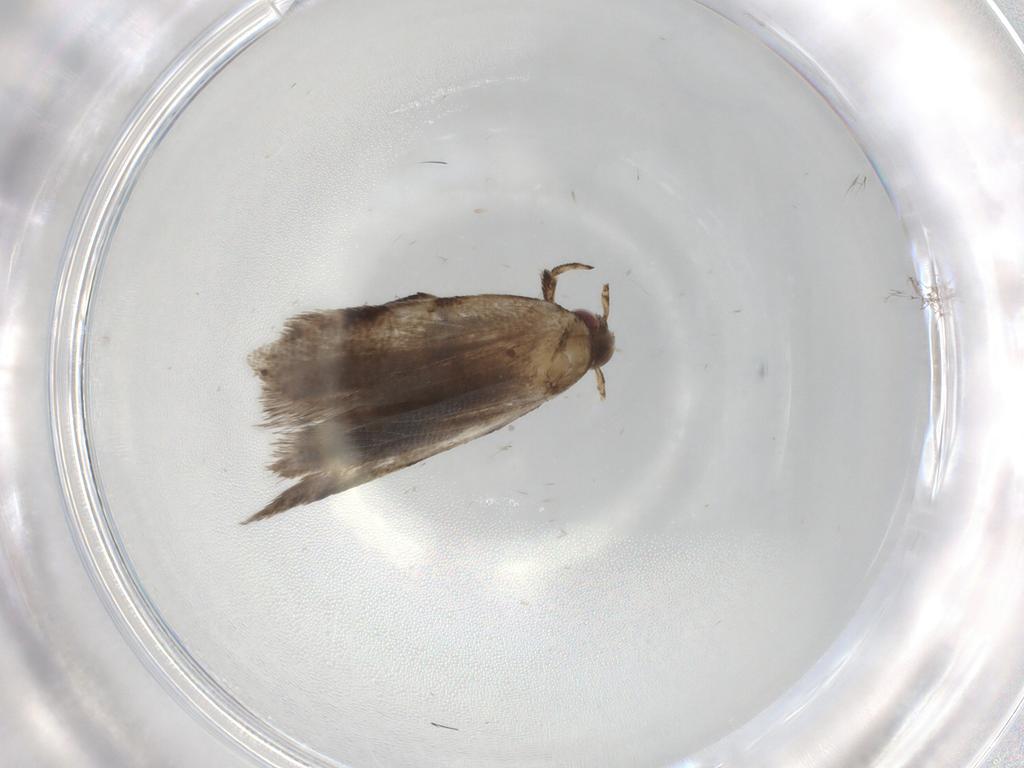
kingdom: Animalia
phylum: Arthropoda
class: Insecta
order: Lepidoptera
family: Gelechiidae
